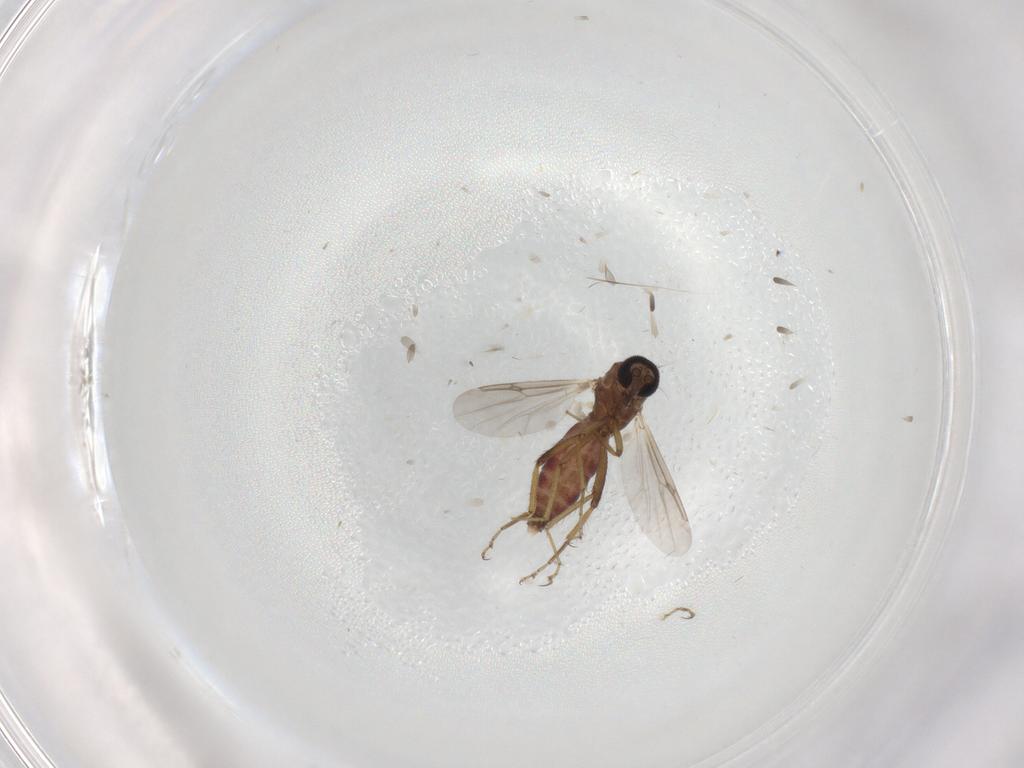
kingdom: Animalia
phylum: Arthropoda
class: Insecta
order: Diptera
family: Ceratopogonidae
